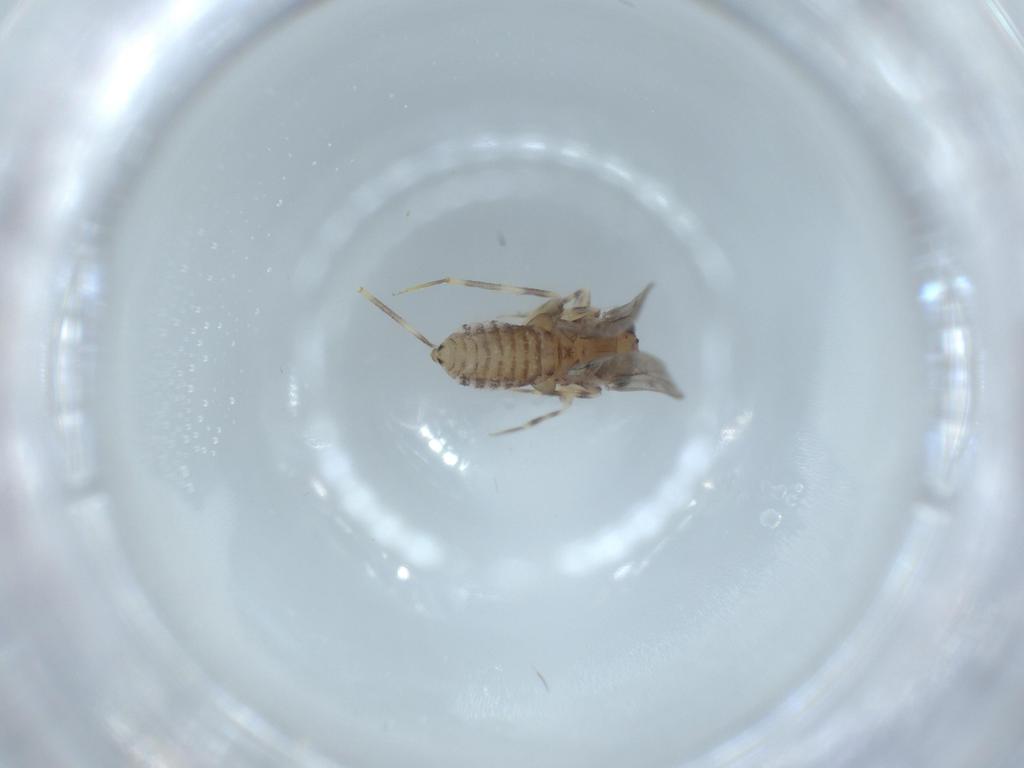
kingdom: Animalia
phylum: Arthropoda
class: Insecta
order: Psocodea
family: Lepidopsocidae
